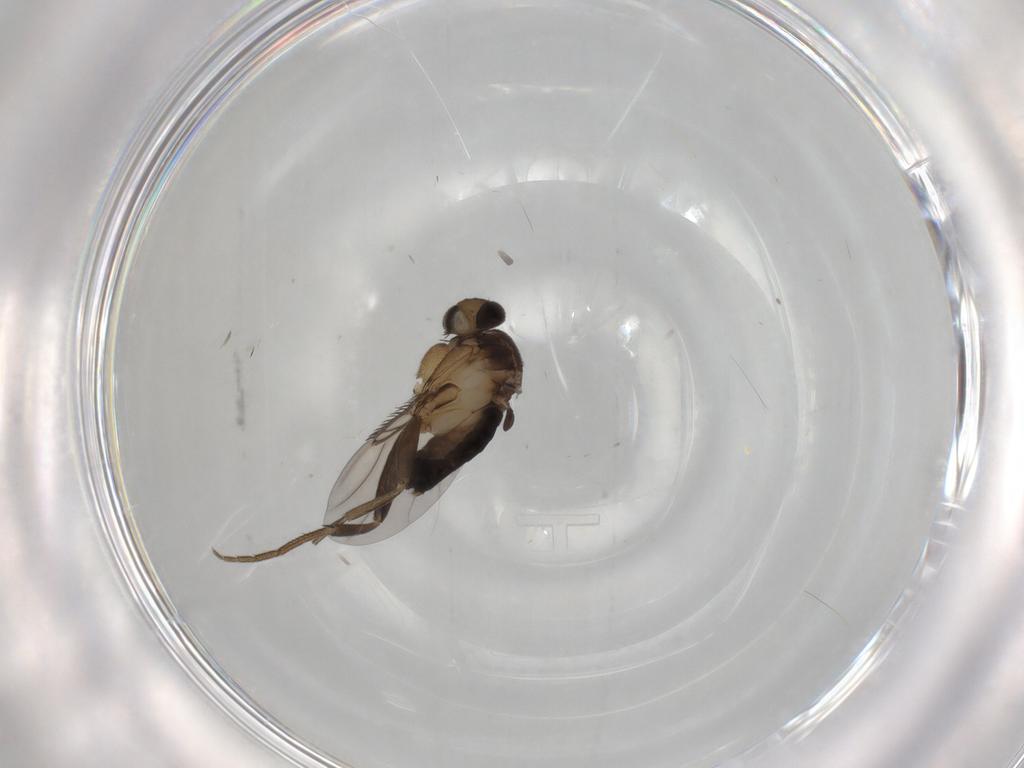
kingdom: Animalia
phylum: Arthropoda
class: Insecta
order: Diptera
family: Phoridae
